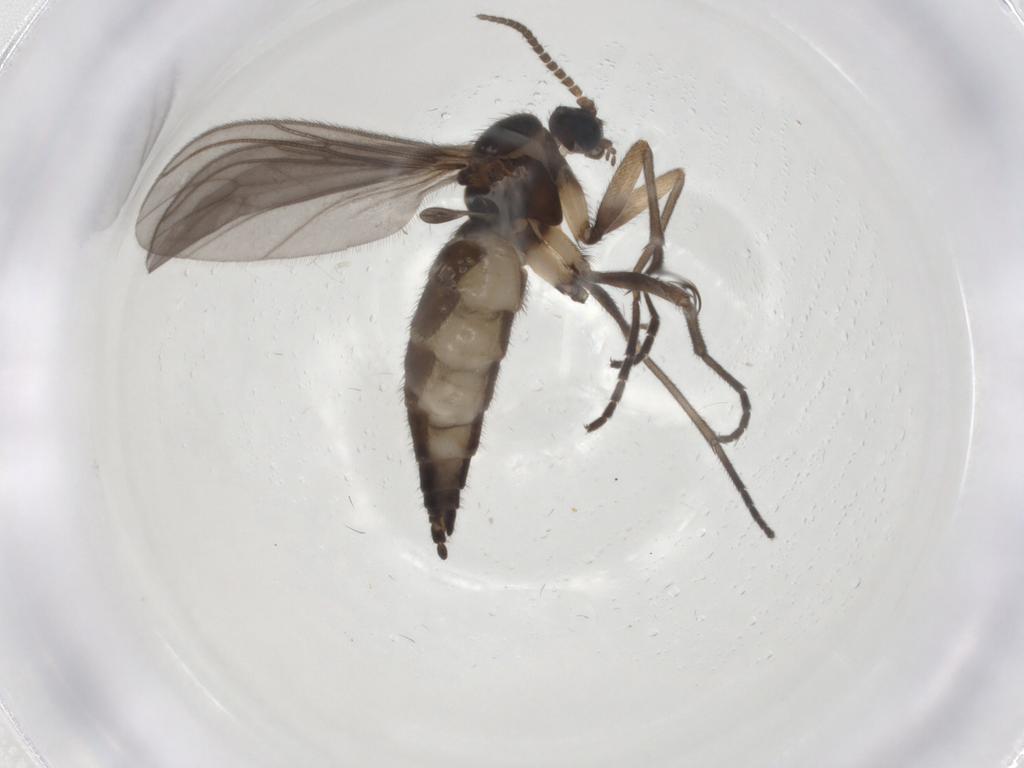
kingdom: Animalia
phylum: Arthropoda
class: Insecta
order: Diptera
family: Sciaridae
